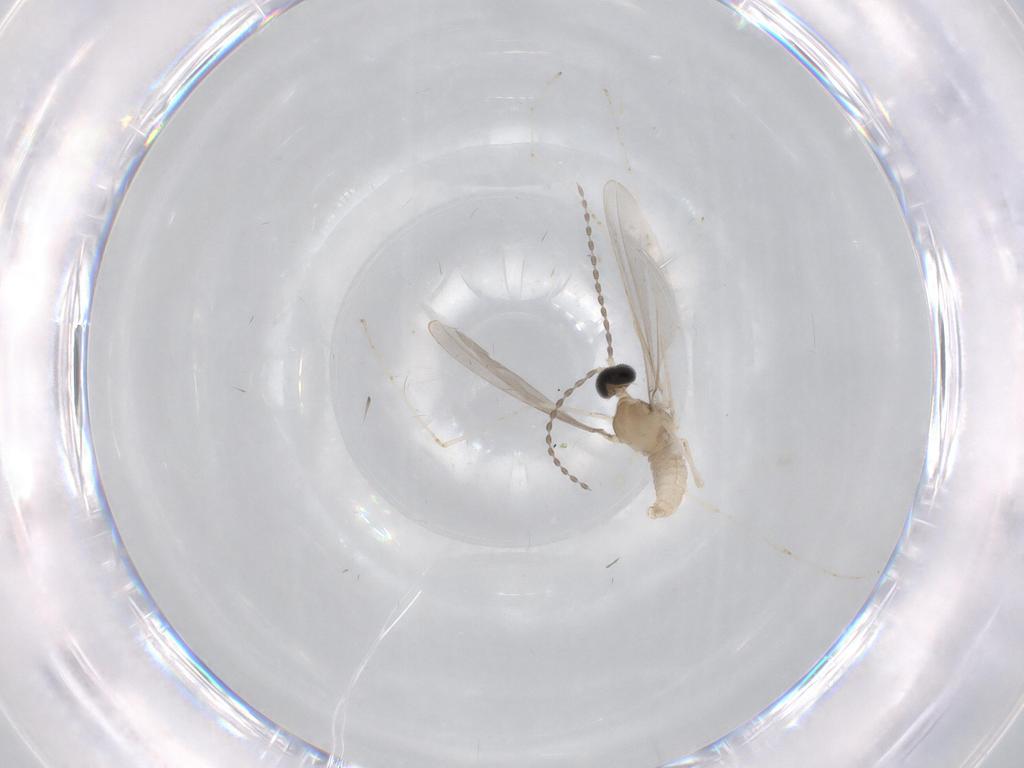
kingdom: Animalia
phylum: Arthropoda
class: Insecta
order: Diptera
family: Cecidomyiidae
